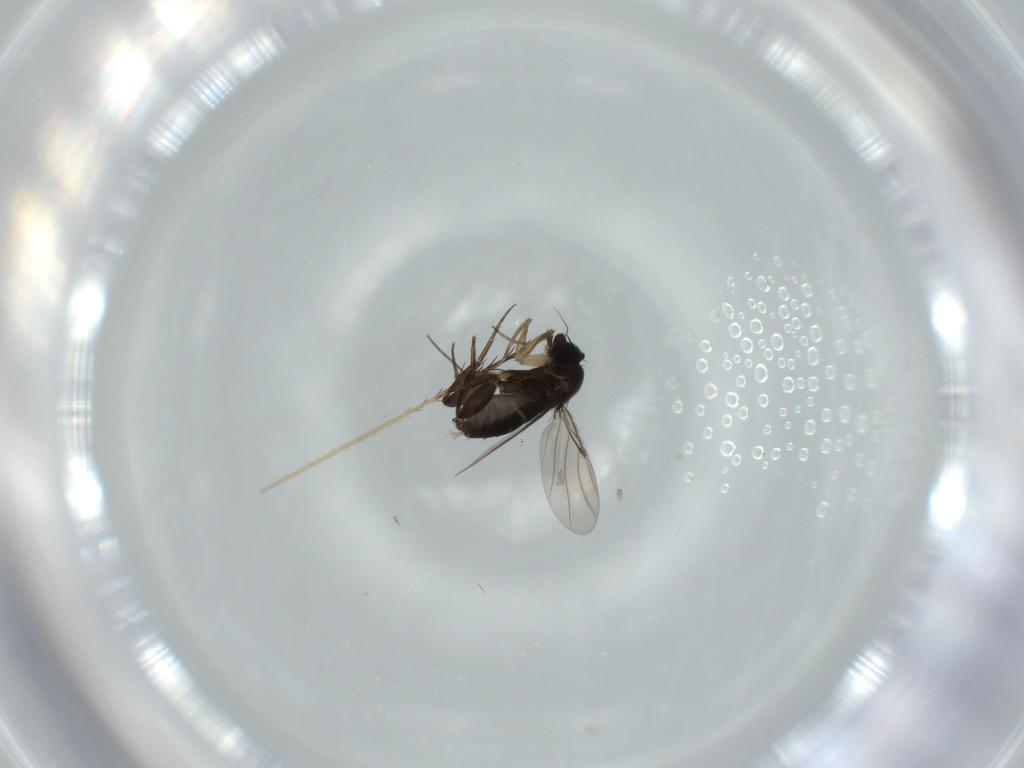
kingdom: Animalia
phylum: Arthropoda
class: Insecta
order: Diptera
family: Phoridae
